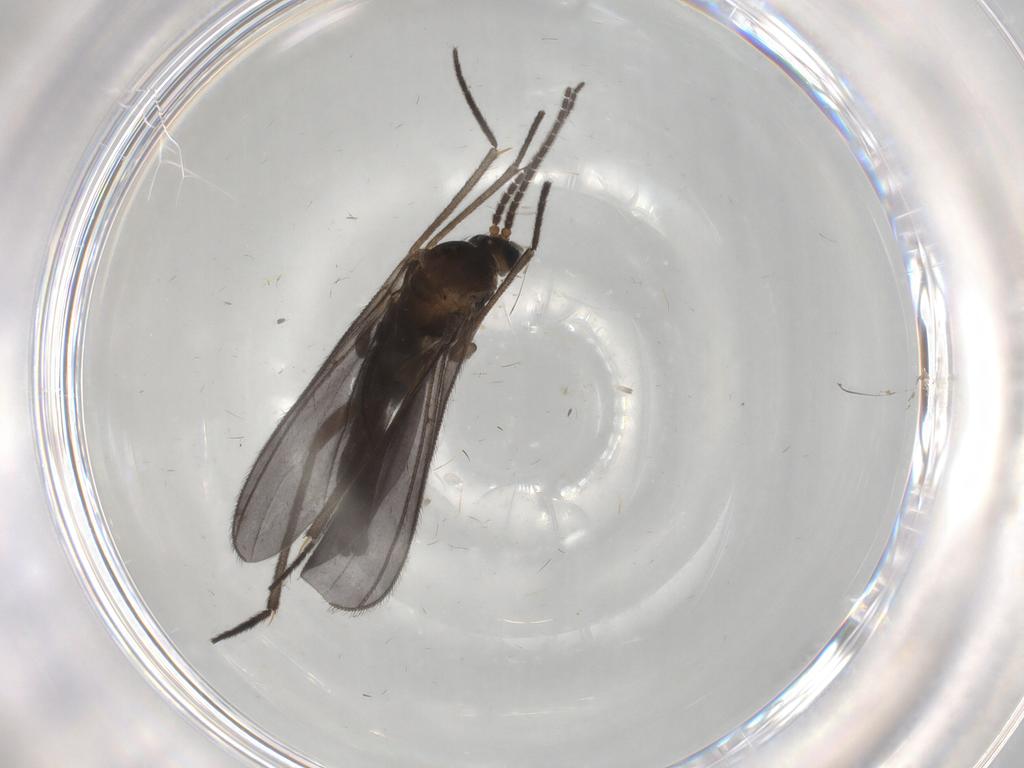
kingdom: Animalia
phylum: Arthropoda
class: Insecta
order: Diptera
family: Sciaridae
